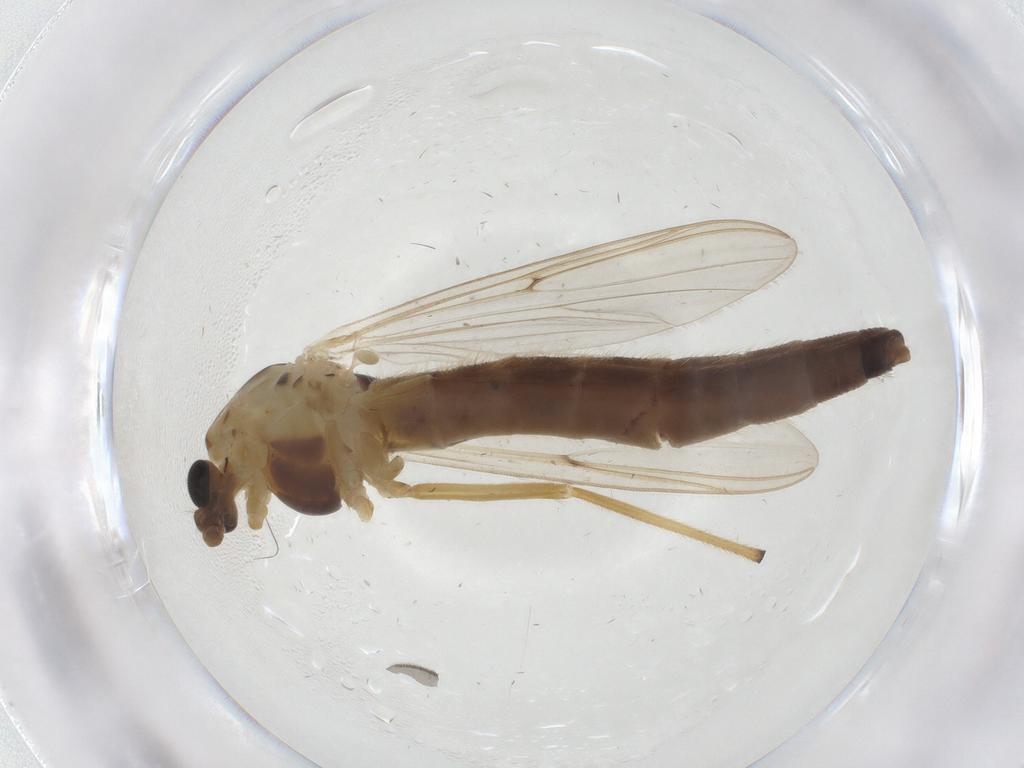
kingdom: Animalia
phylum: Arthropoda
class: Insecta
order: Diptera
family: Chironomidae
